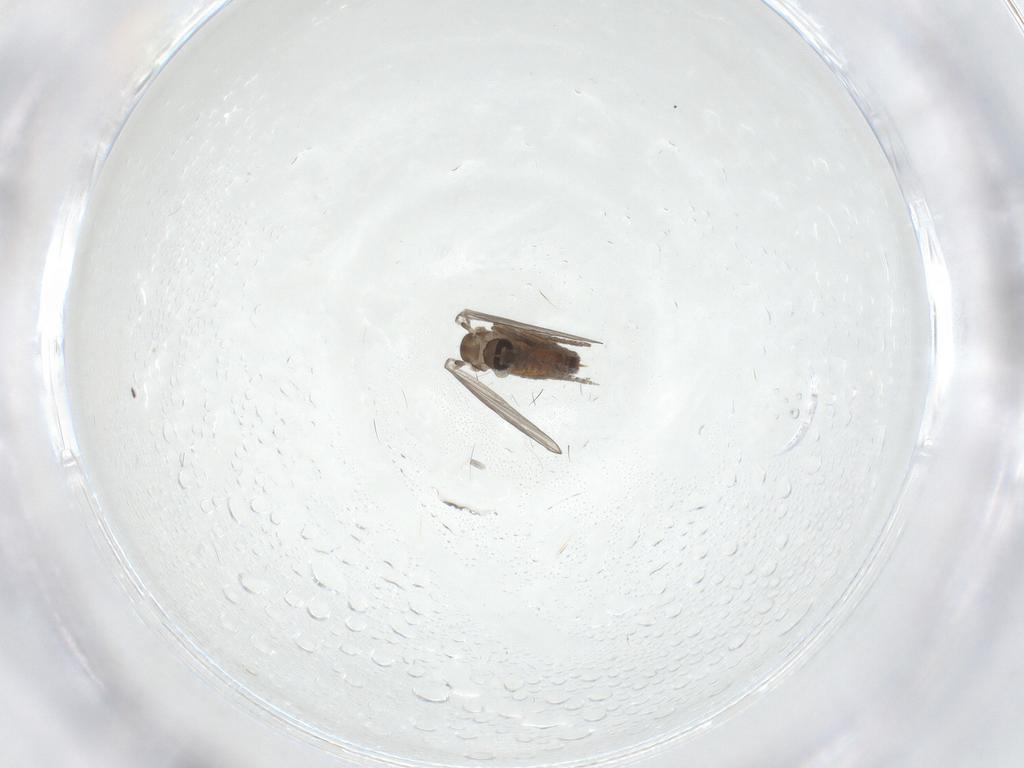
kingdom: Animalia
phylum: Arthropoda
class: Insecta
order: Diptera
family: Psychodidae
